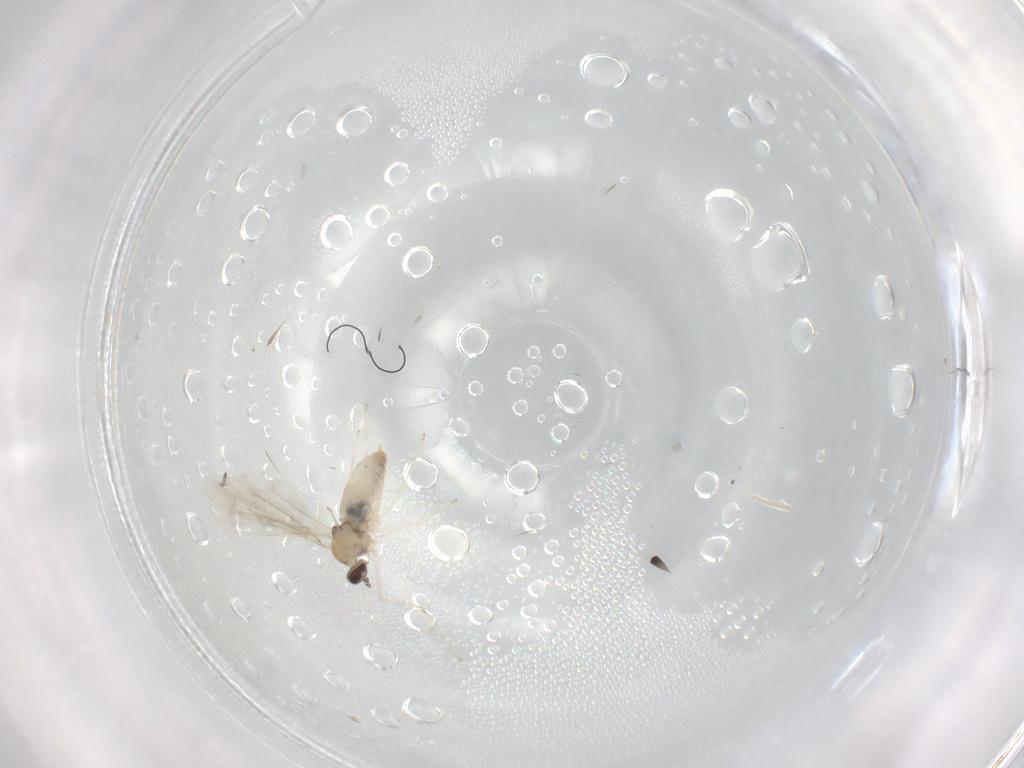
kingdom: Animalia
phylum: Arthropoda
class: Insecta
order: Diptera
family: Cecidomyiidae
